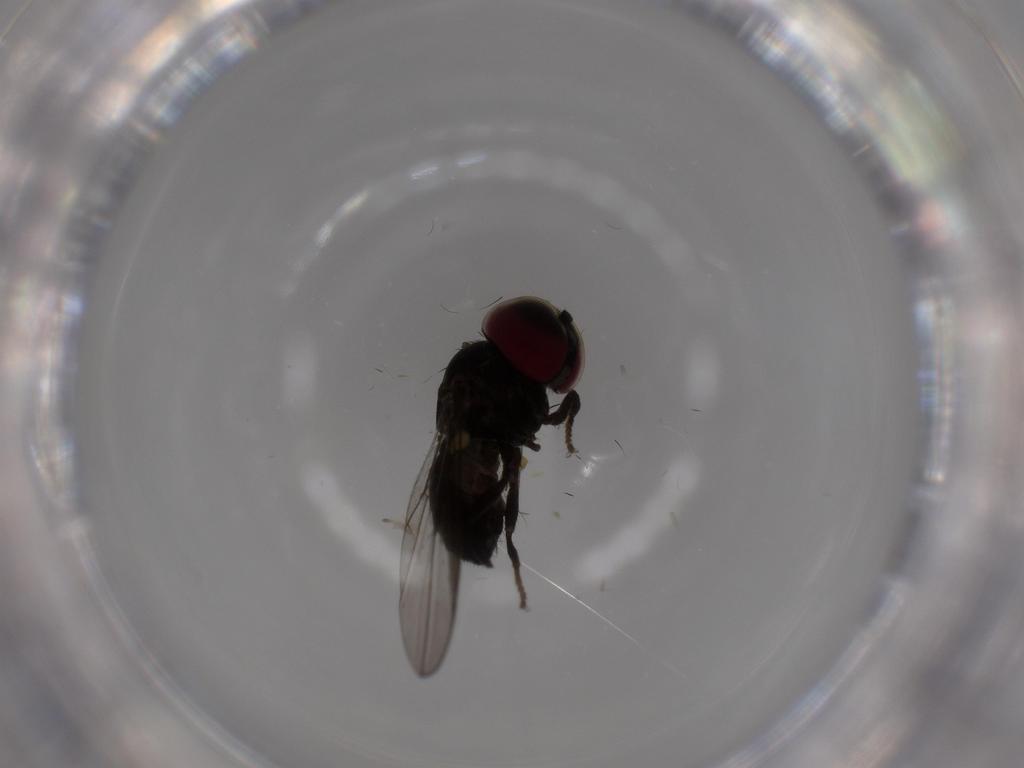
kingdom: Animalia
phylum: Arthropoda
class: Insecta
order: Diptera
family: Pipunculidae
